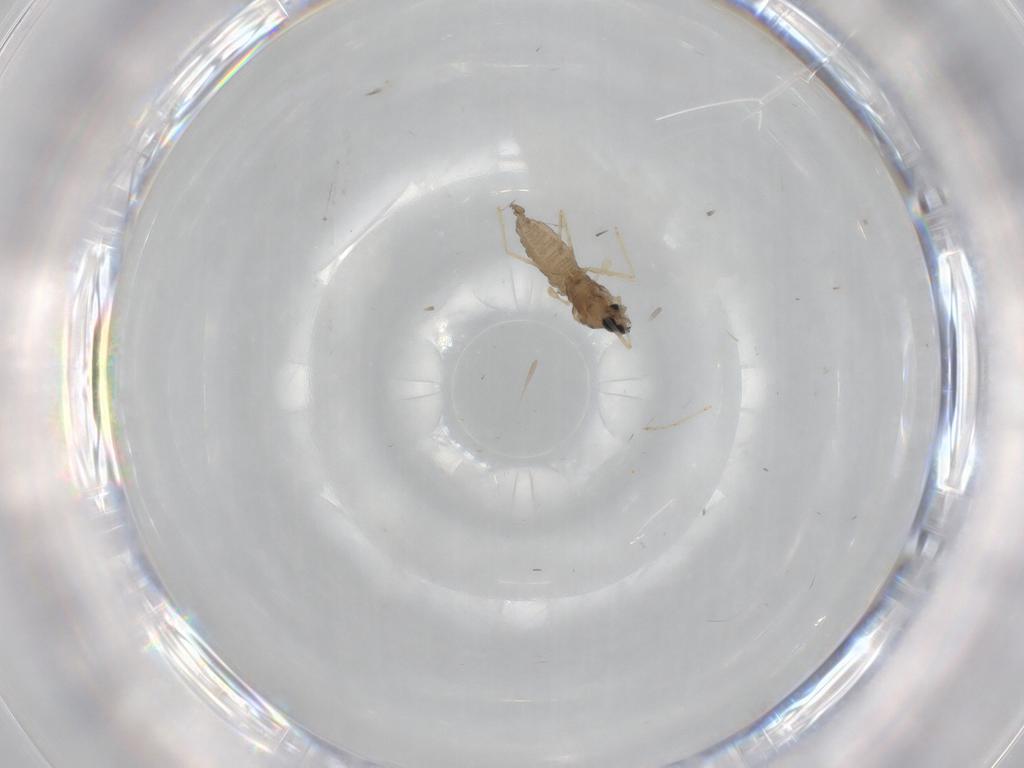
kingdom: Animalia
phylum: Arthropoda
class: Insecta
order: Diptera
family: Cecidomyiidae
